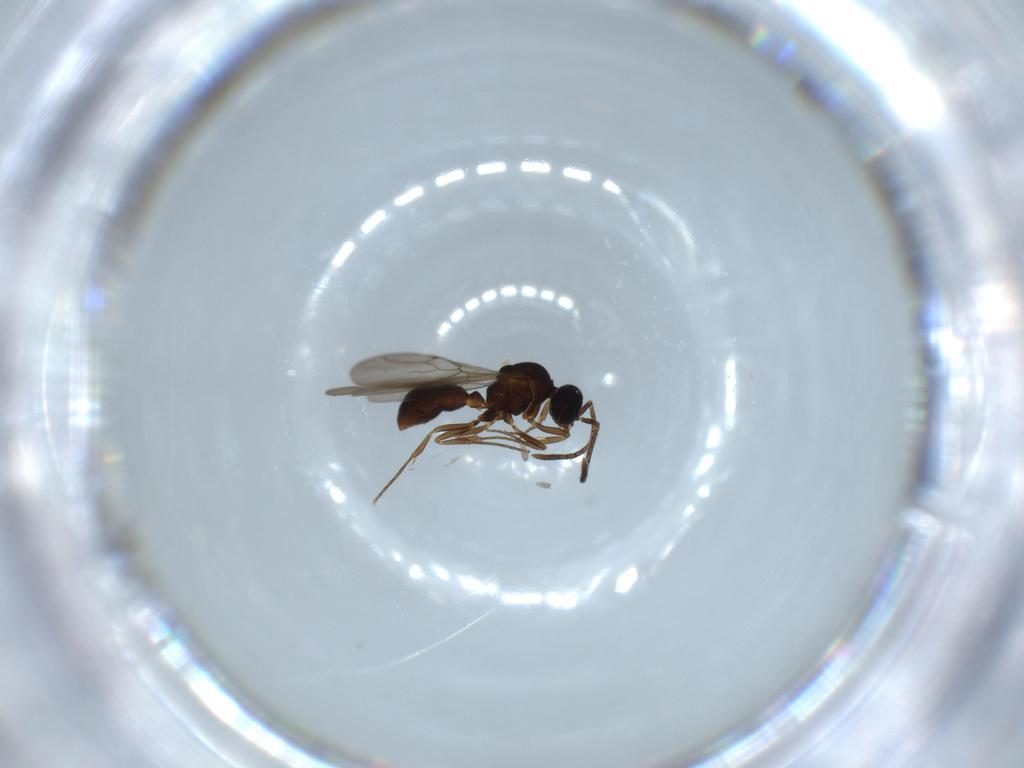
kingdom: Animalia
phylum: Arthropoda
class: Insecta
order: Hymenoptera
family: Formicidae
